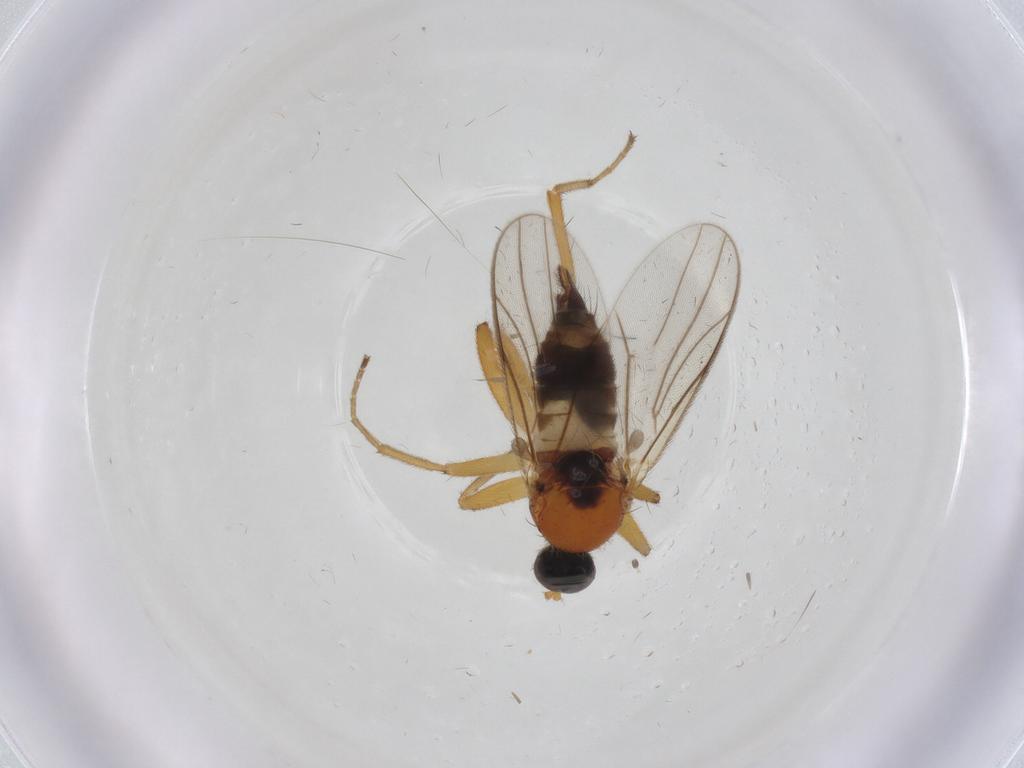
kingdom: Animalia
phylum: Arthropoda
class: Insecta
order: Diptera
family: Hybotidae
